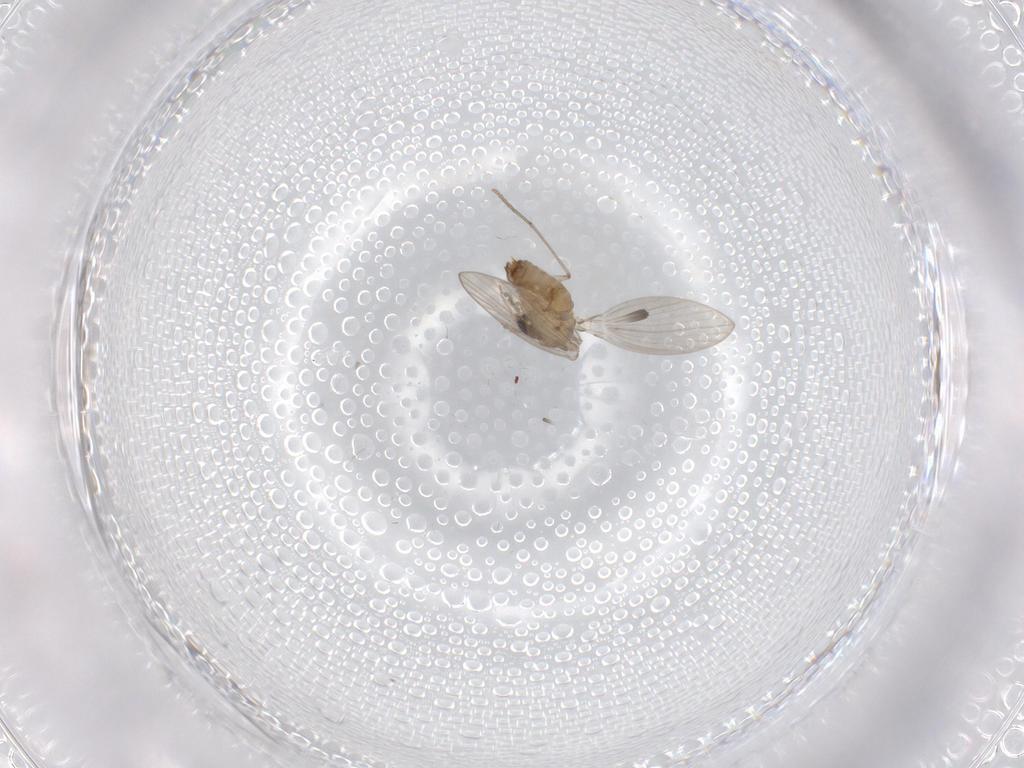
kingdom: Animalia
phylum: Arthropoda
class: Insecta
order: Diptera
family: Psychodidae
